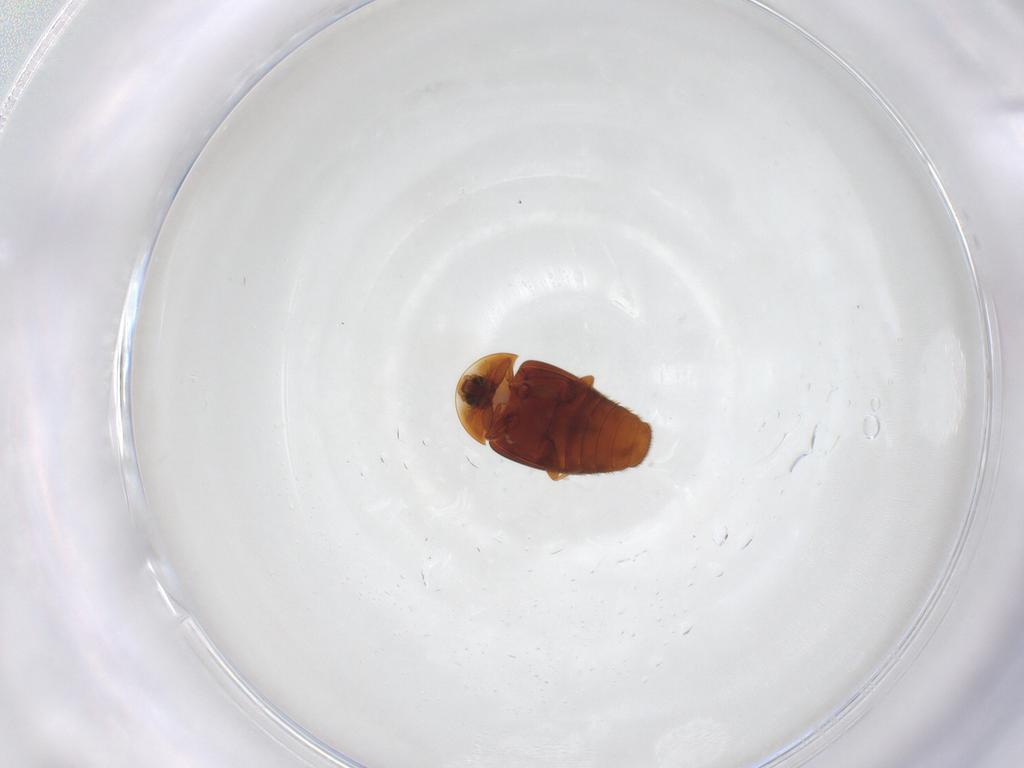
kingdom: Animalia
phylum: Arthropoda
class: Insecta
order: Coleoptera
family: Corylophidae
